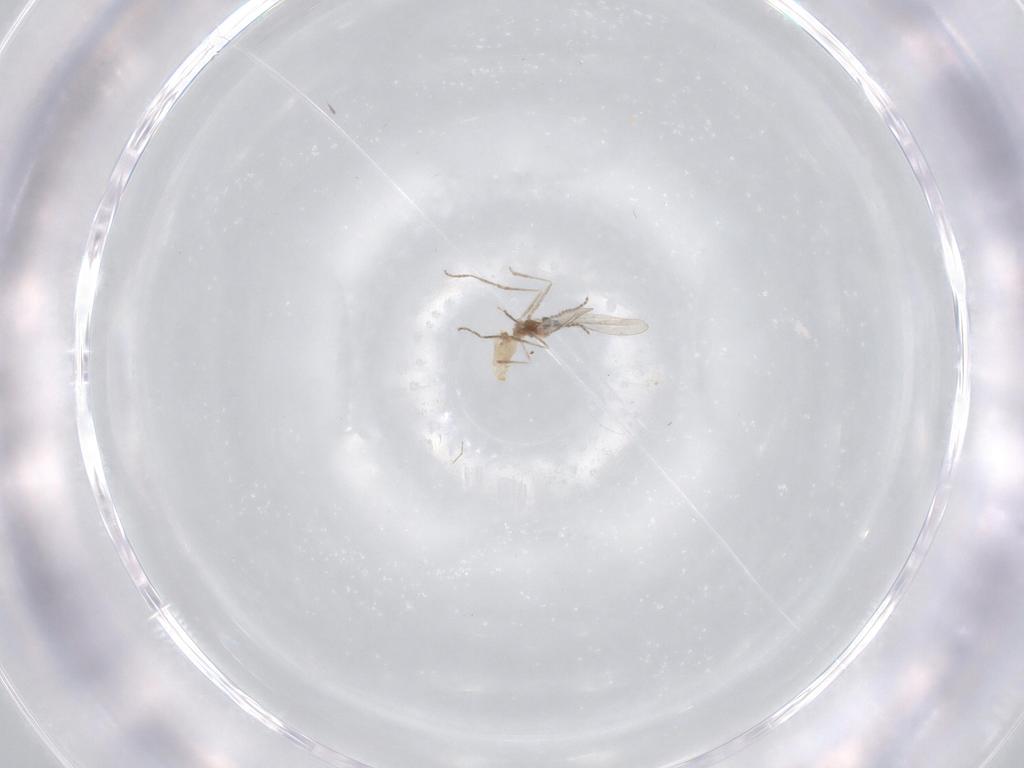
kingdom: Animalia
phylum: Arthropoda
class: Insecta
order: Diptera
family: Cecidomyiidae
